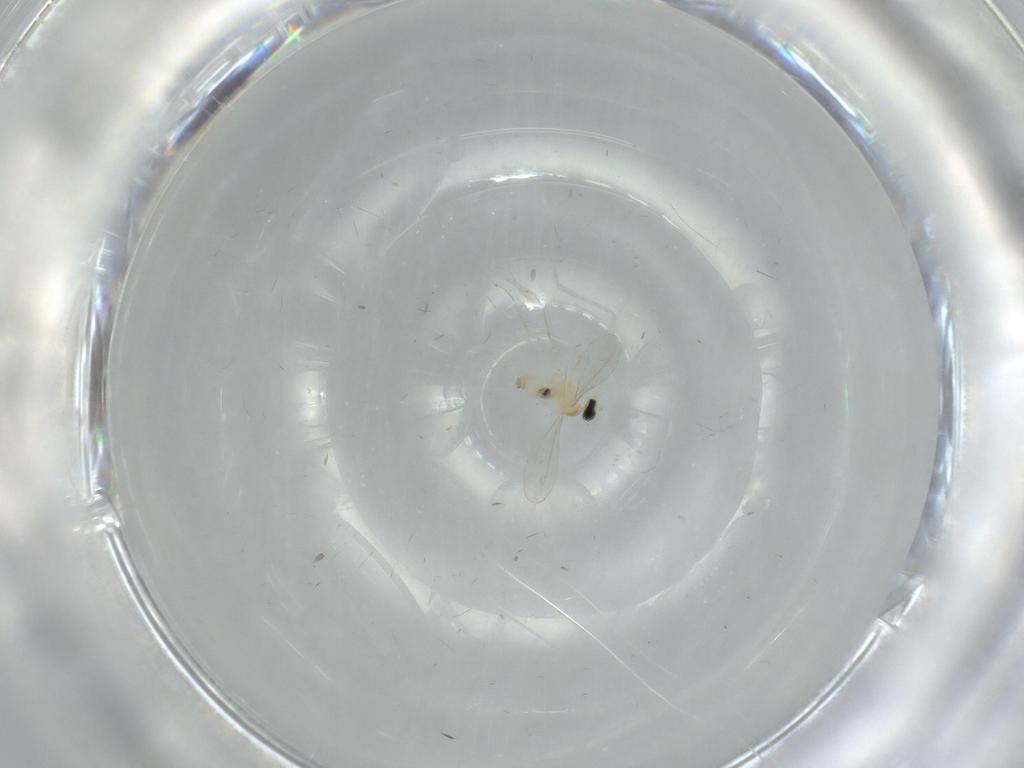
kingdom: Animalia
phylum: Arthropoda
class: Insecta
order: Diptera
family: Cecidomyiidae
